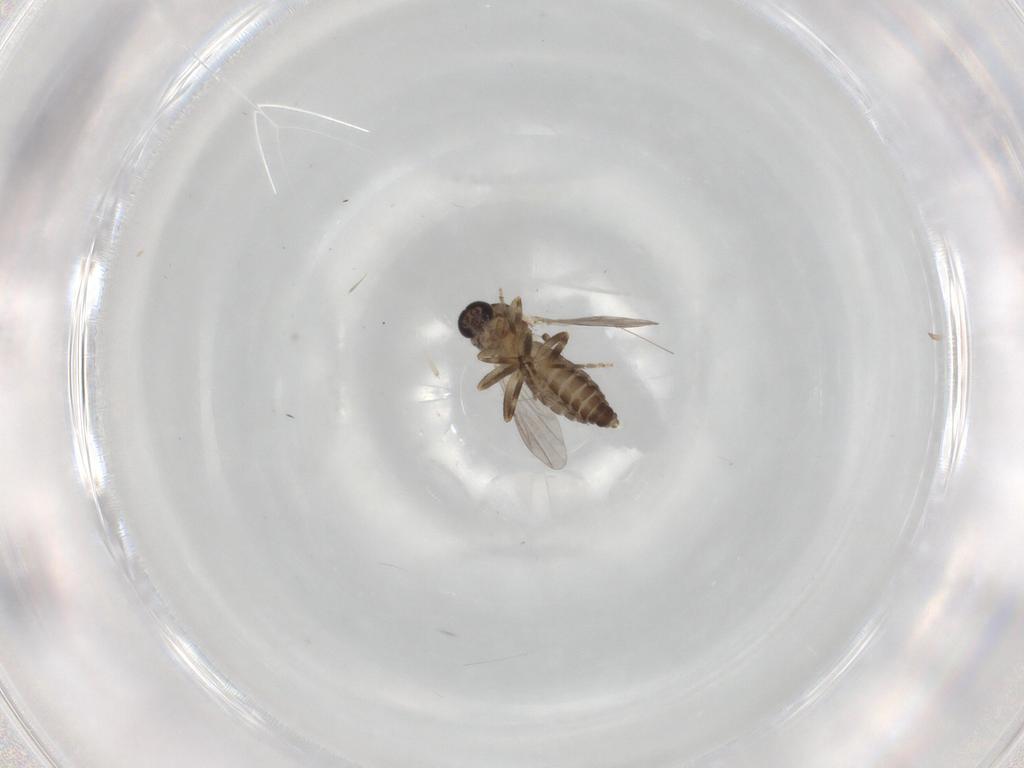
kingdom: Animalia
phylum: Arthropoda
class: Insecta
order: Diptera
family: Ceratopogonidae
